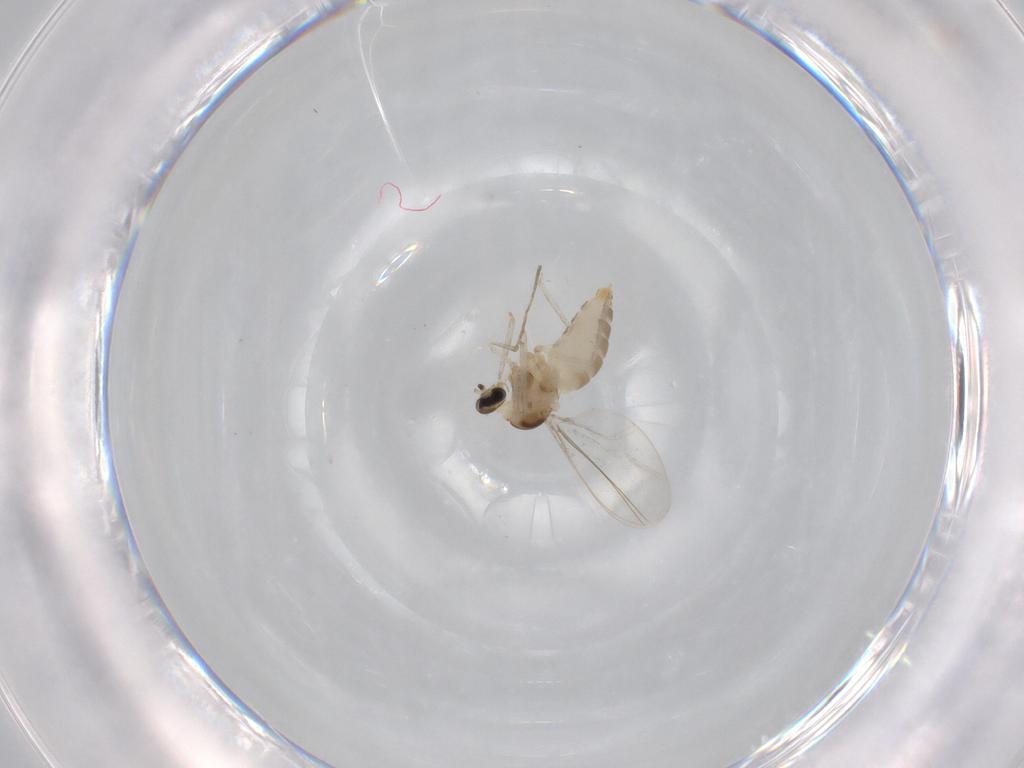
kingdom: Animalia
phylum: Arthropoda
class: Insecta
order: Diptera
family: Cecidomyiidae
